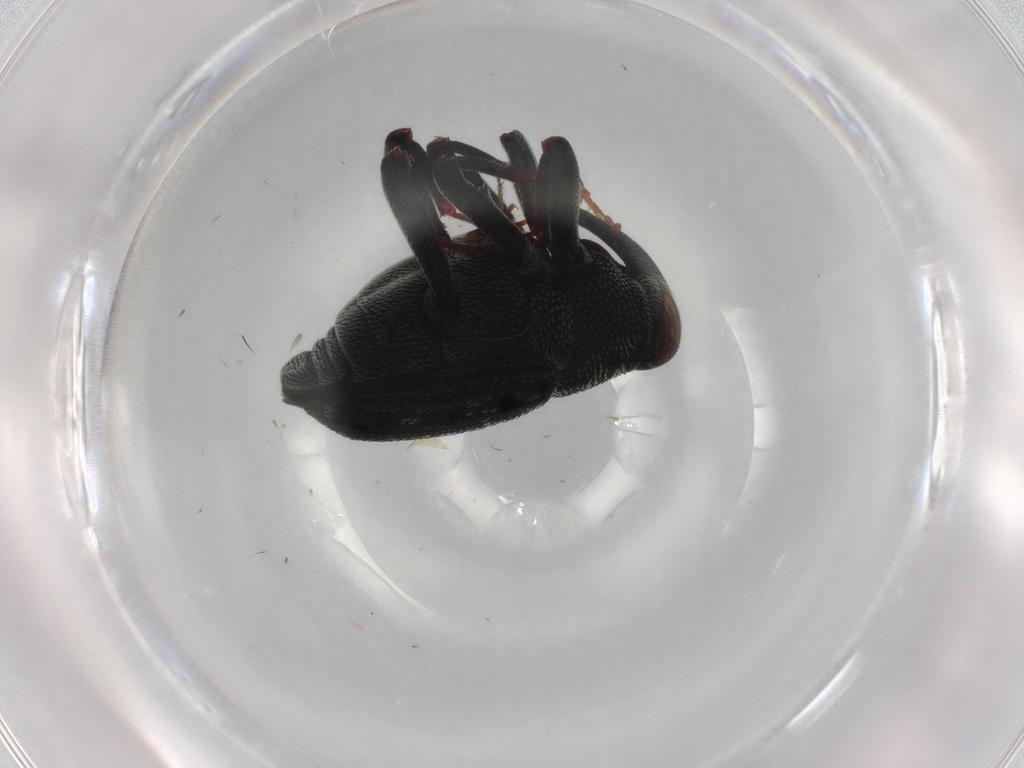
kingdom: Animalia
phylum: Arthropoda
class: Insecta
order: Coleoptera
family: Curculionidae
